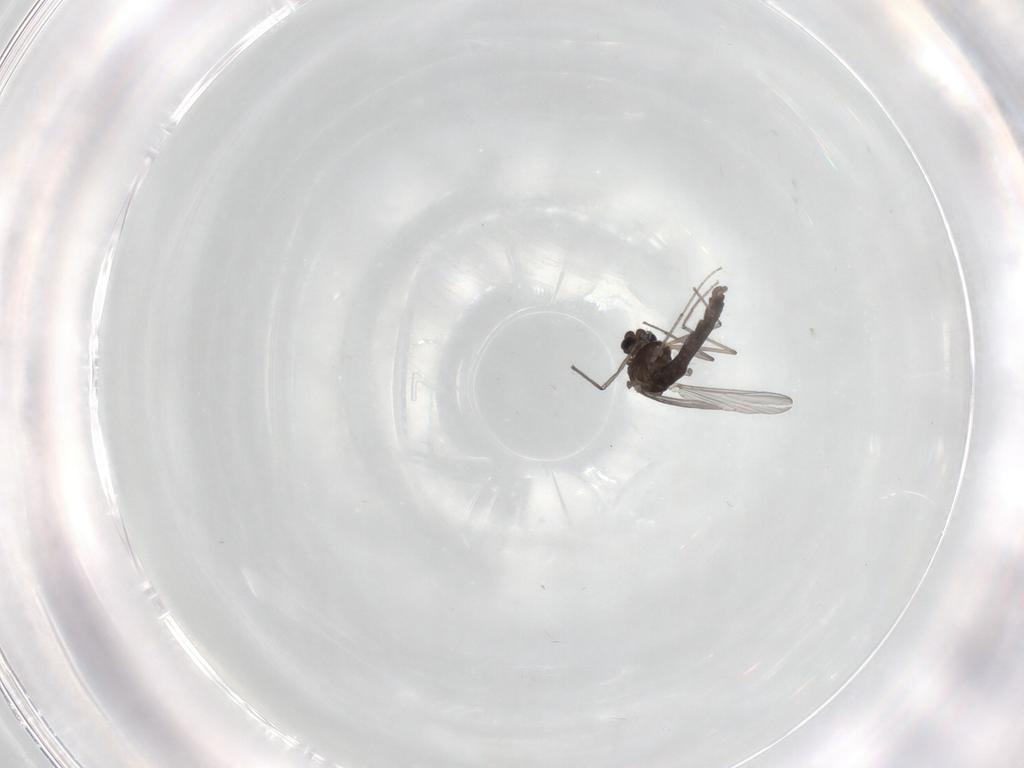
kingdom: Animalia
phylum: Arthropoda
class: Insecta
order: Diptera
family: Chironomidae
